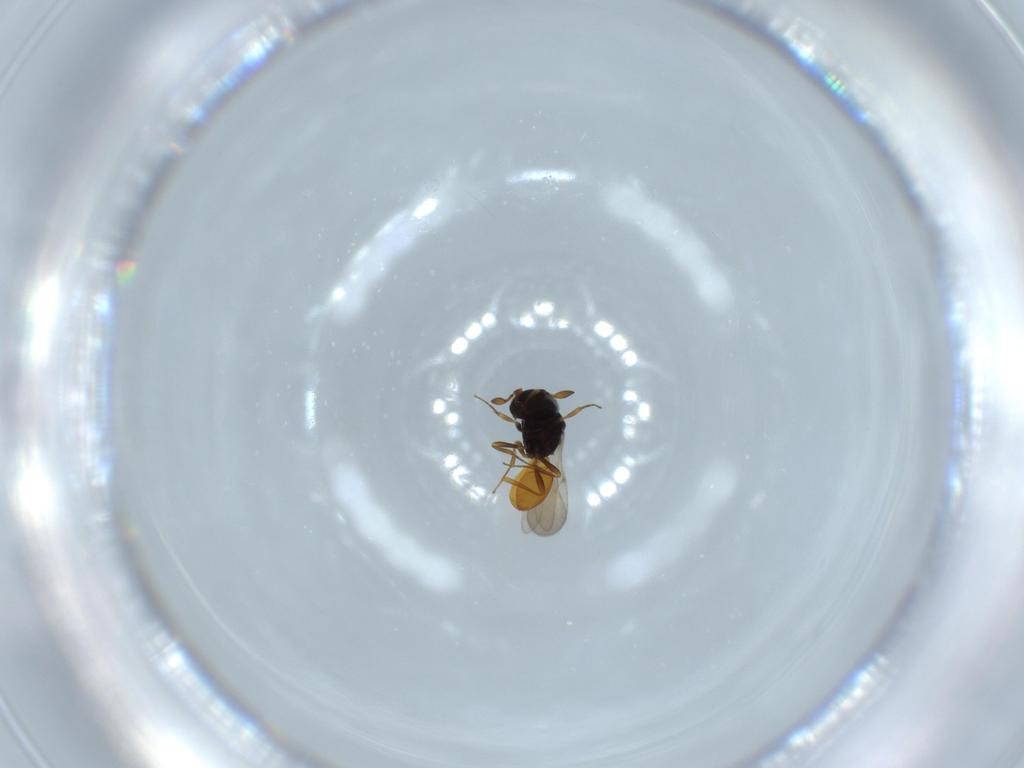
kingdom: Animalia
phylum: Arthropoda
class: Insecta
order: Hymenoptera
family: Scelionidae
